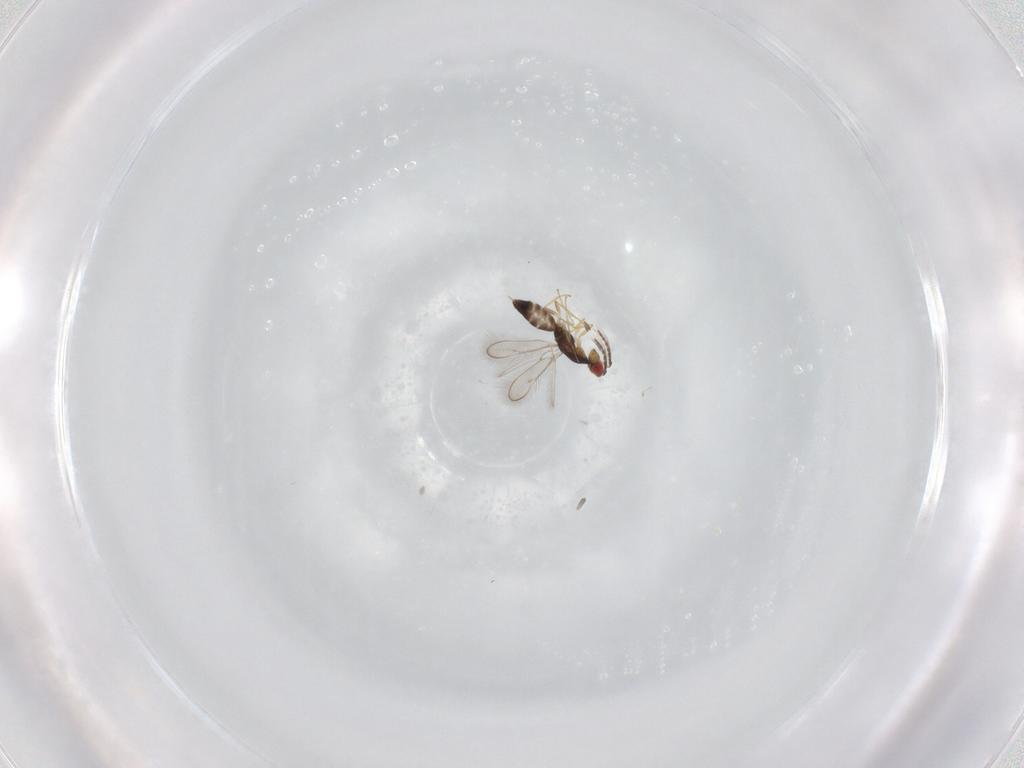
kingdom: Animalia
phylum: Arthropoda
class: Insecta
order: Hymenoptera
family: Eulophidae
